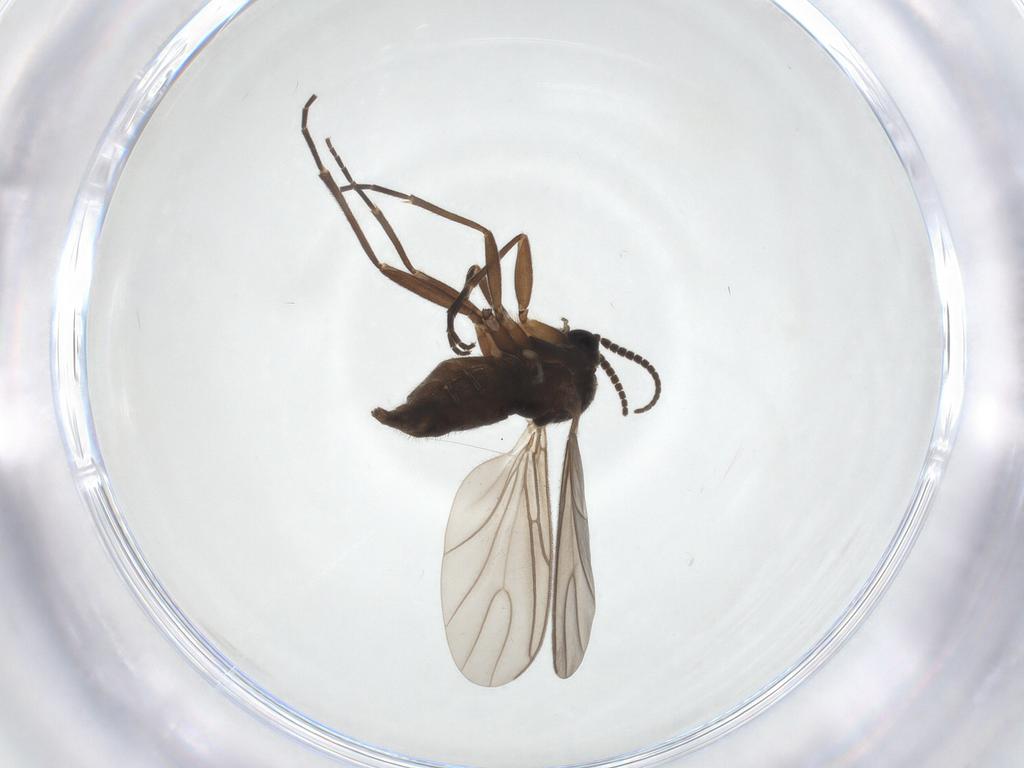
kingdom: Animalia
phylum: Arthropoda
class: Insecta
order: Diptera
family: Sciaridae
